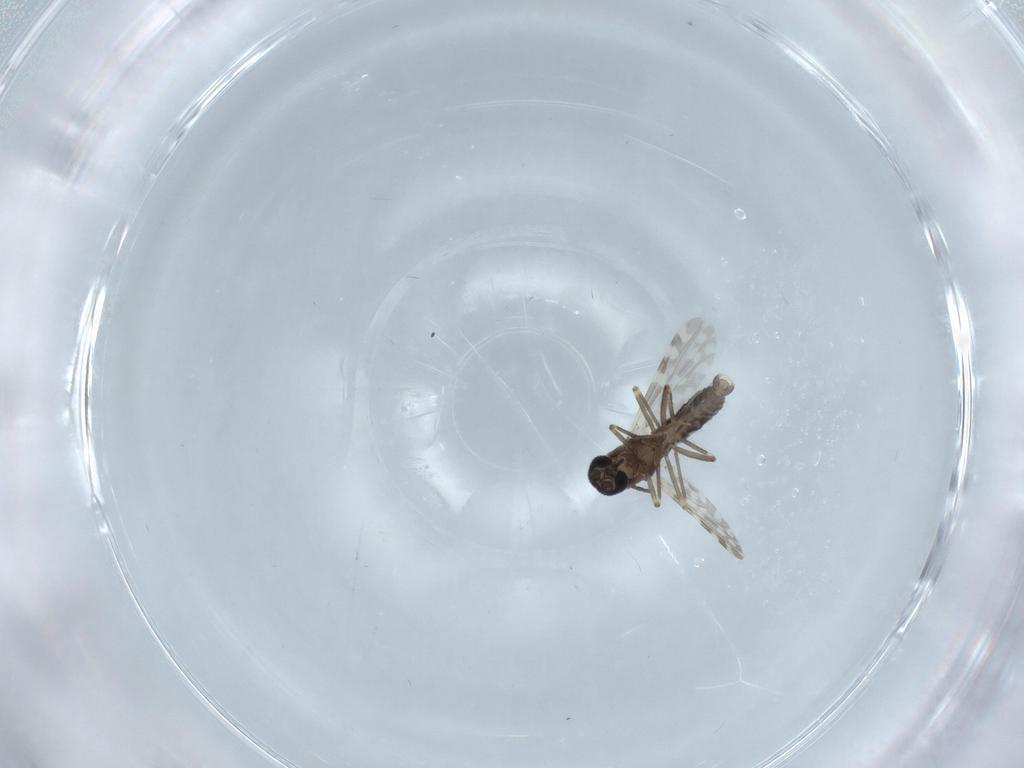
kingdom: Animalia
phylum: Arthropoda
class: Insecta
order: Diptera
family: Ceratopogonidae
